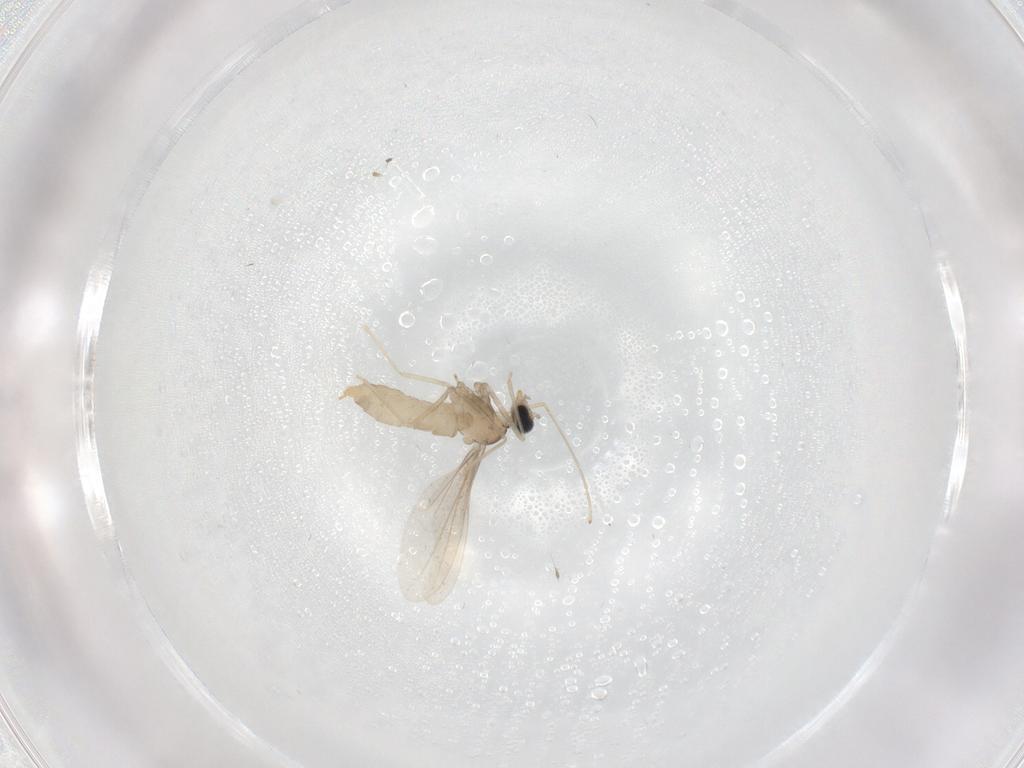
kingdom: Animalia
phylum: Arthropoda
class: Insecta
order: Diptera
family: Cecidomyiidae
